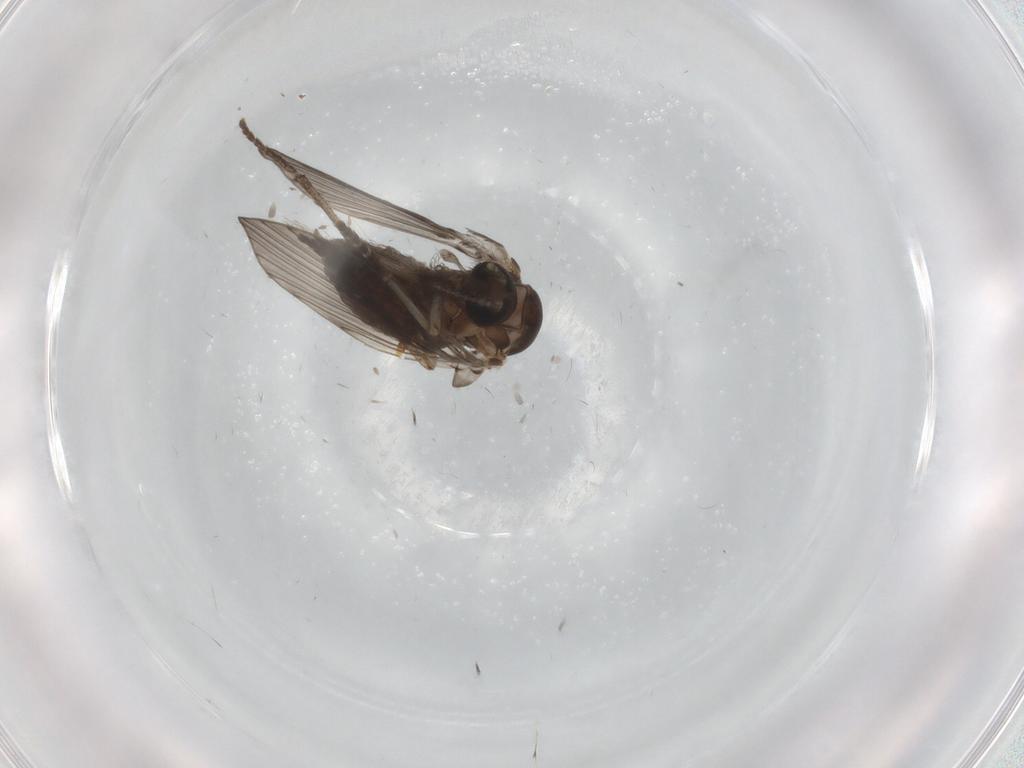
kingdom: Animalia
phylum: Arthropoda
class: Insecta
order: Diptera
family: Psychodidae
